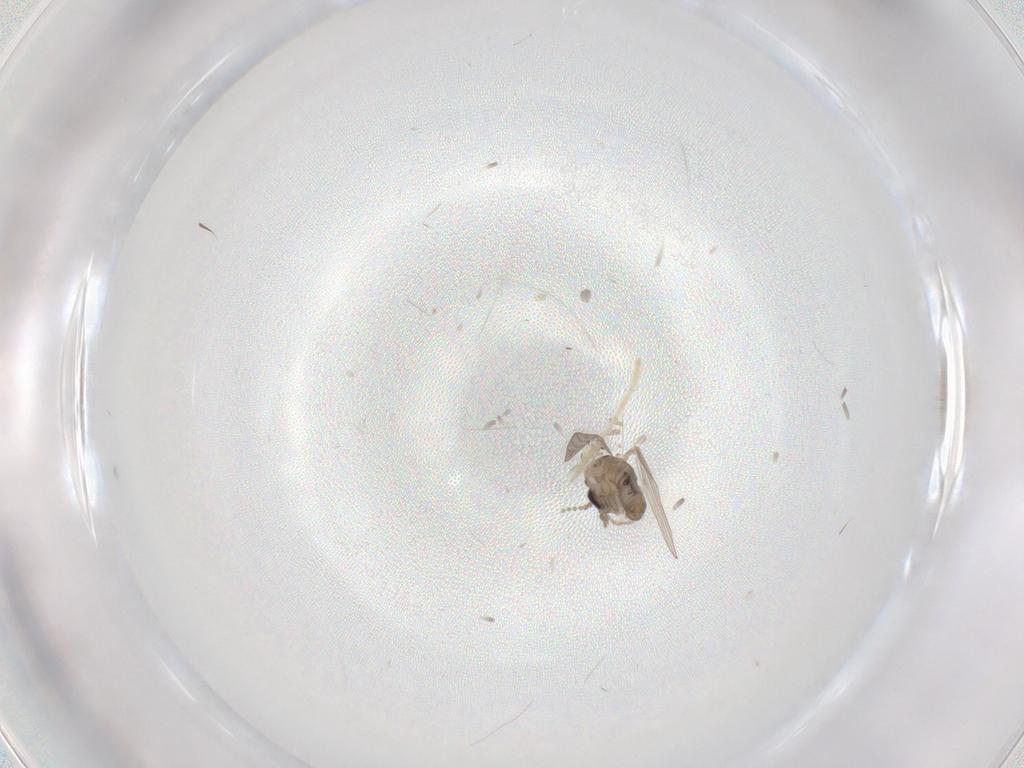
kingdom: Animalia
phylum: Arthropoda
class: Insecta
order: Diptera
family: Psychodidae
